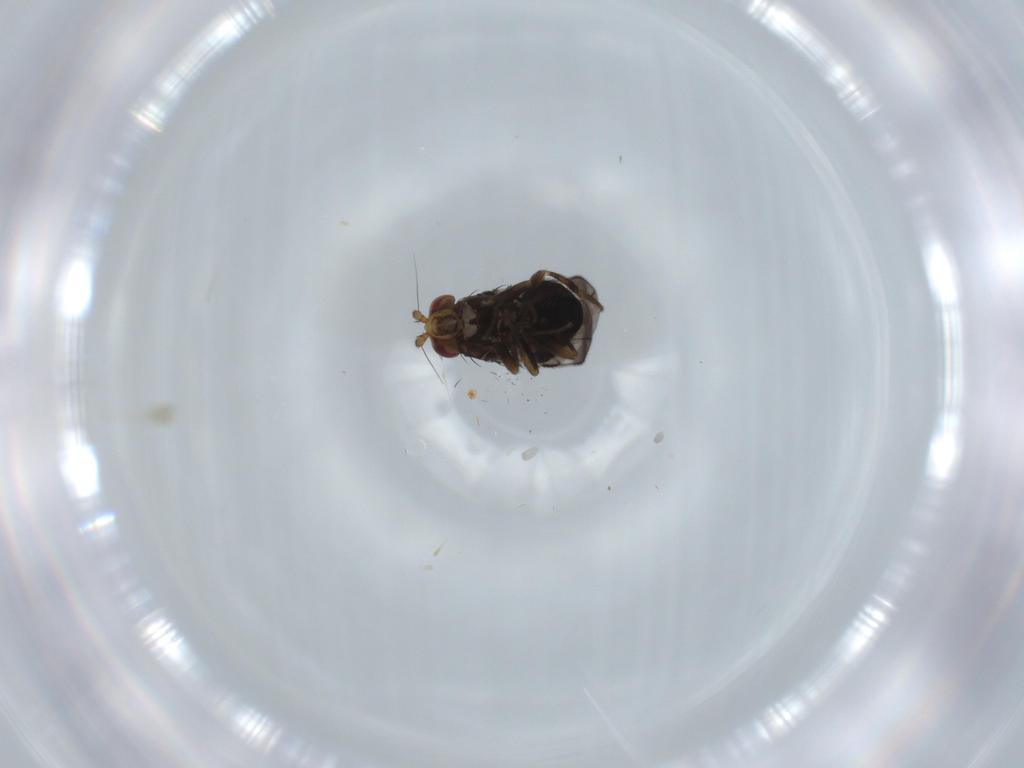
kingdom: Animalia
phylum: Arthropoda
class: Insecta
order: Diptera
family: Sphaeroceridae
